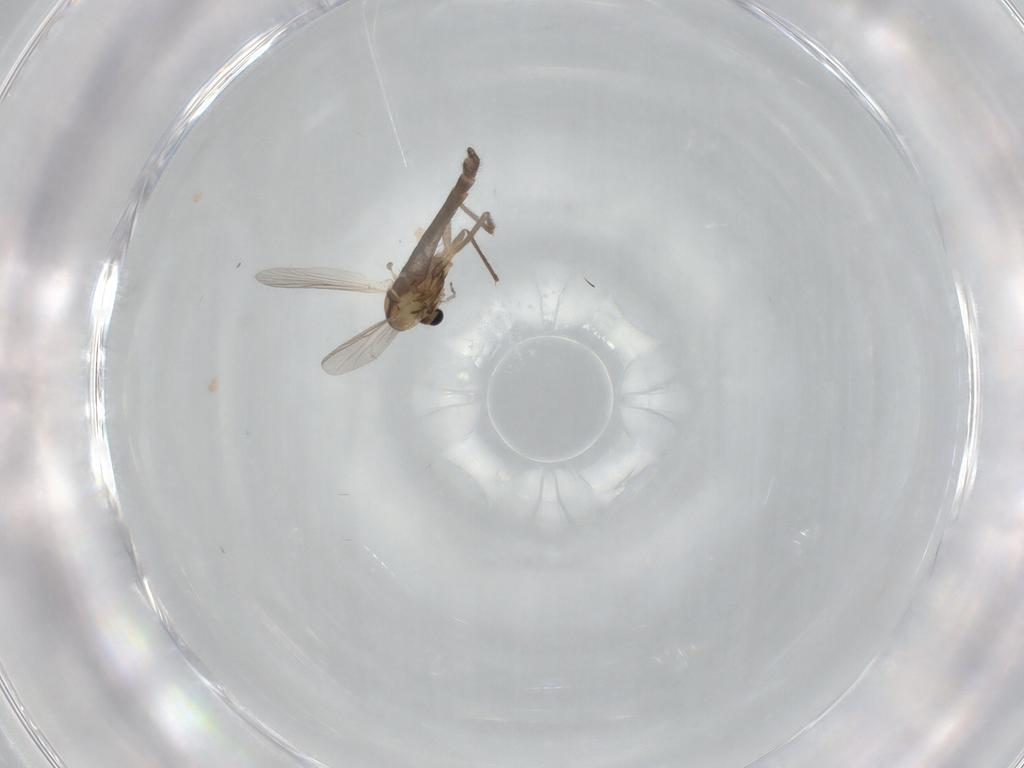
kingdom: Animalia
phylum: Arthropoda
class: Insecta
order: Diptera
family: Chironomidae
